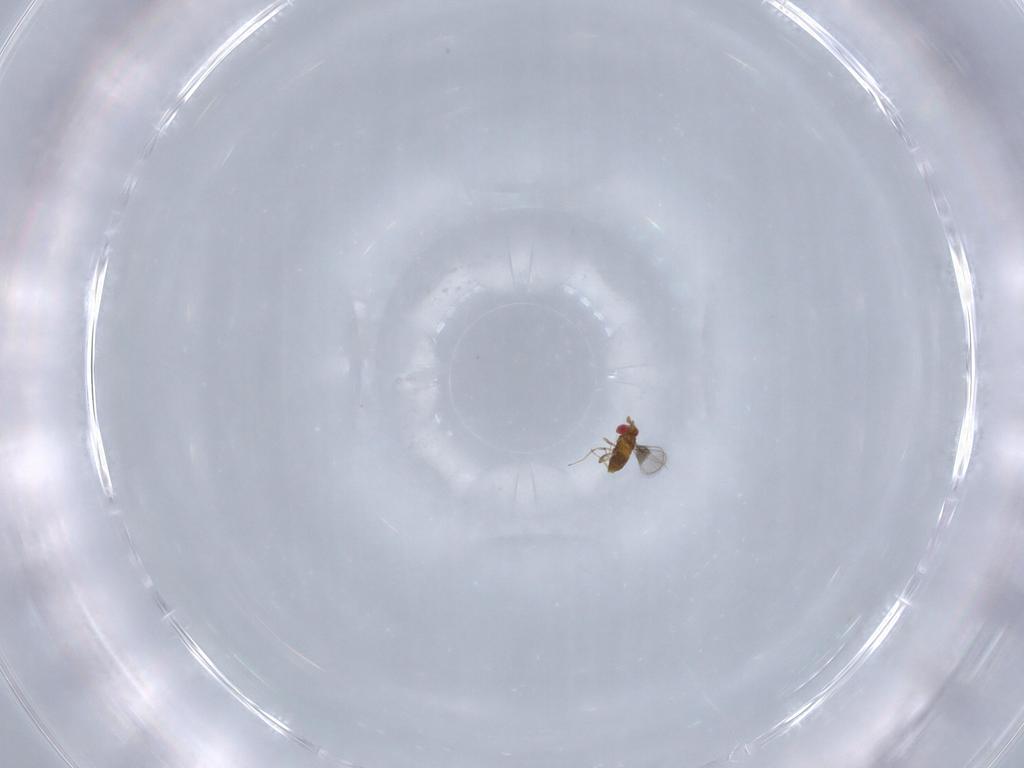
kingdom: Animalia
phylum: Arthropoda
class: Insecta
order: Hymenoptera
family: Trichogrammatidae
